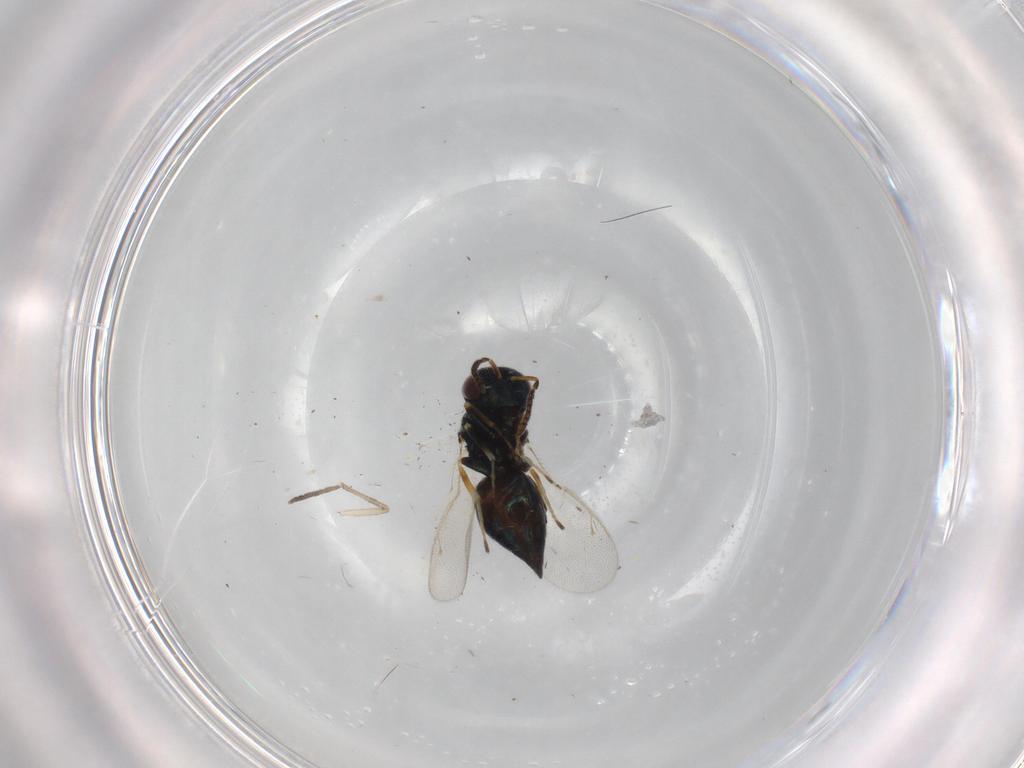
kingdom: Animalia
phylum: Arthropoda
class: Insecta
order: Hymenoptera
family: Pteromalidae
